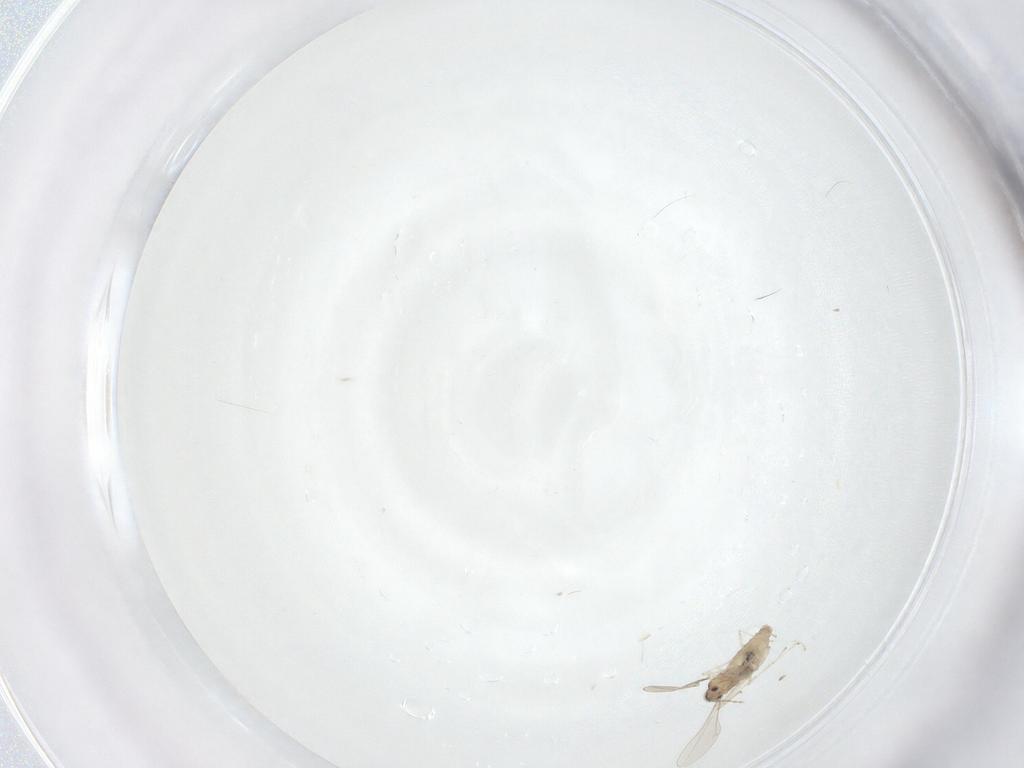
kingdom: Animalia
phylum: Arthropoda
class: Insecta
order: Diptera
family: Cecidomyiidae
